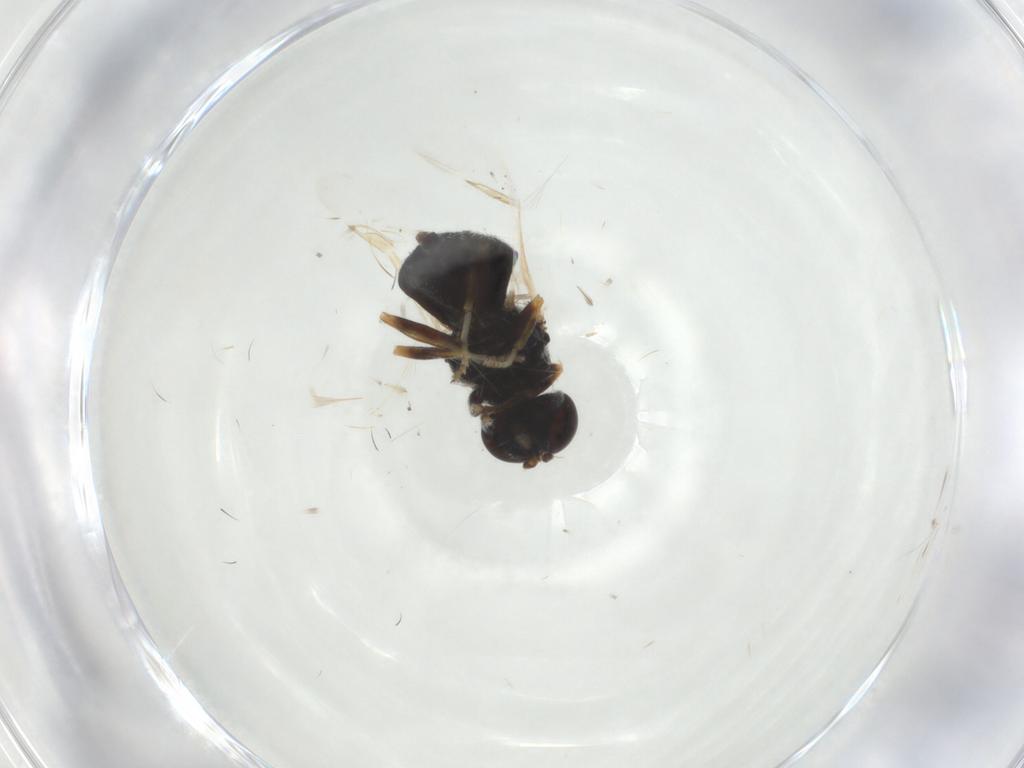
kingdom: Animalia
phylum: Arthropoda
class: Insecta
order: Diptera
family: Stratiomyidae
